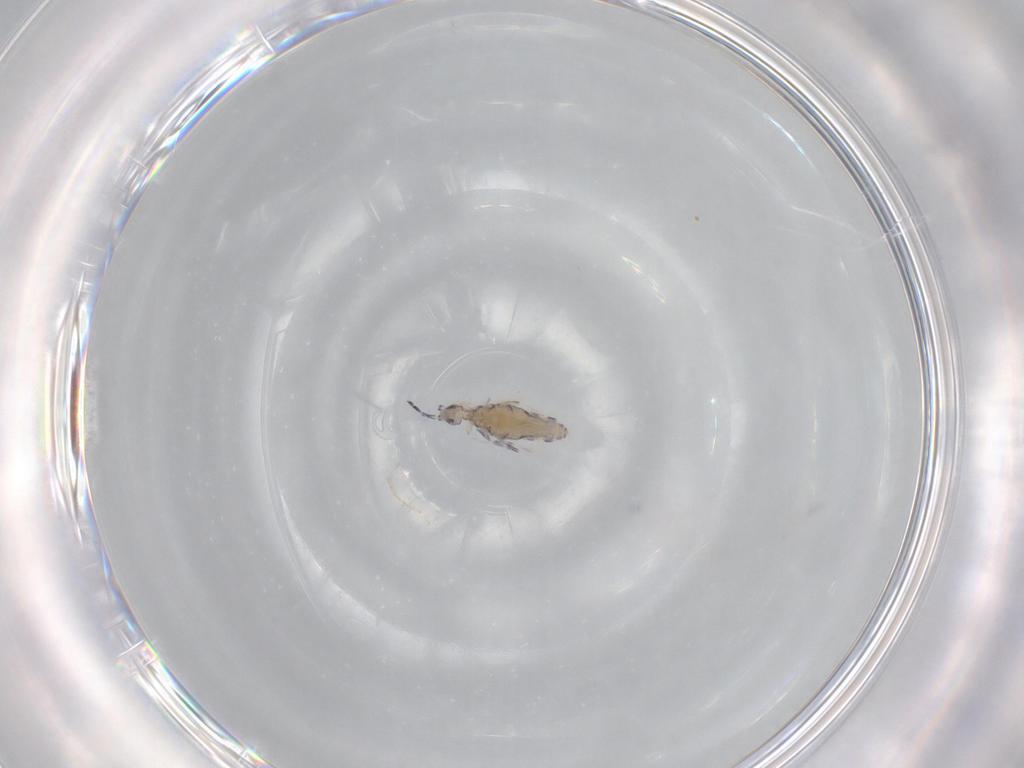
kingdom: Animalia
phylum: Arthropoda
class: Collembola
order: Entomobryomorpha
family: Entomobryidae
